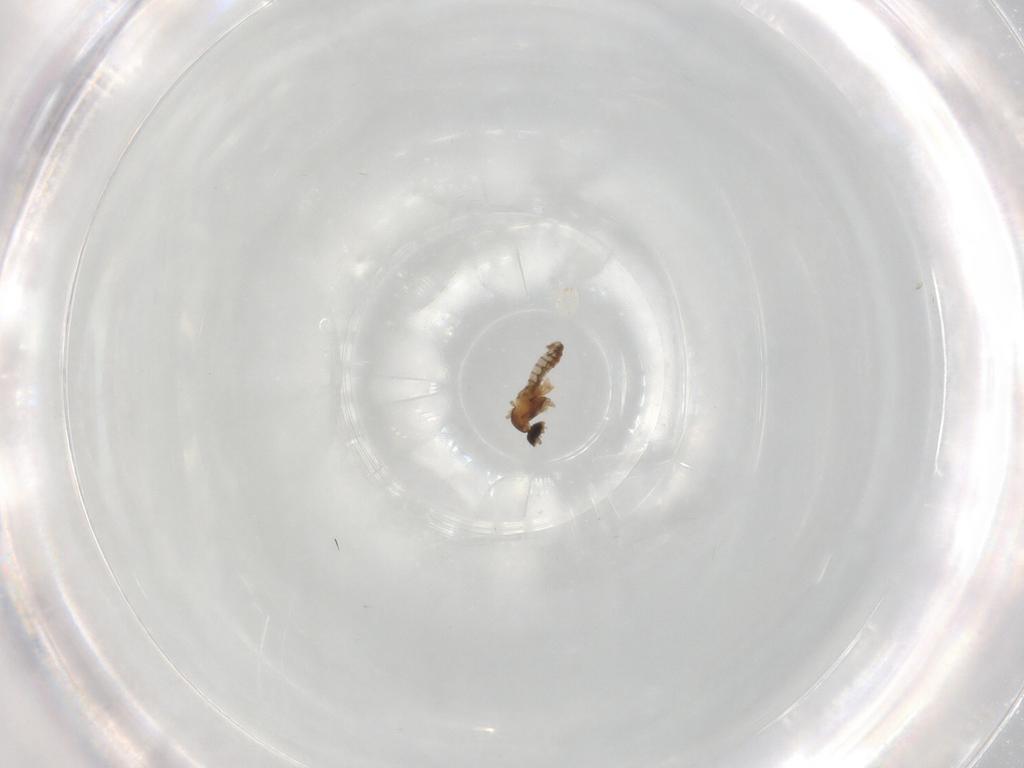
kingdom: Animalia
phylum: Arthropoda
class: Insecta
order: Diptera
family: Cecidomyiidae
